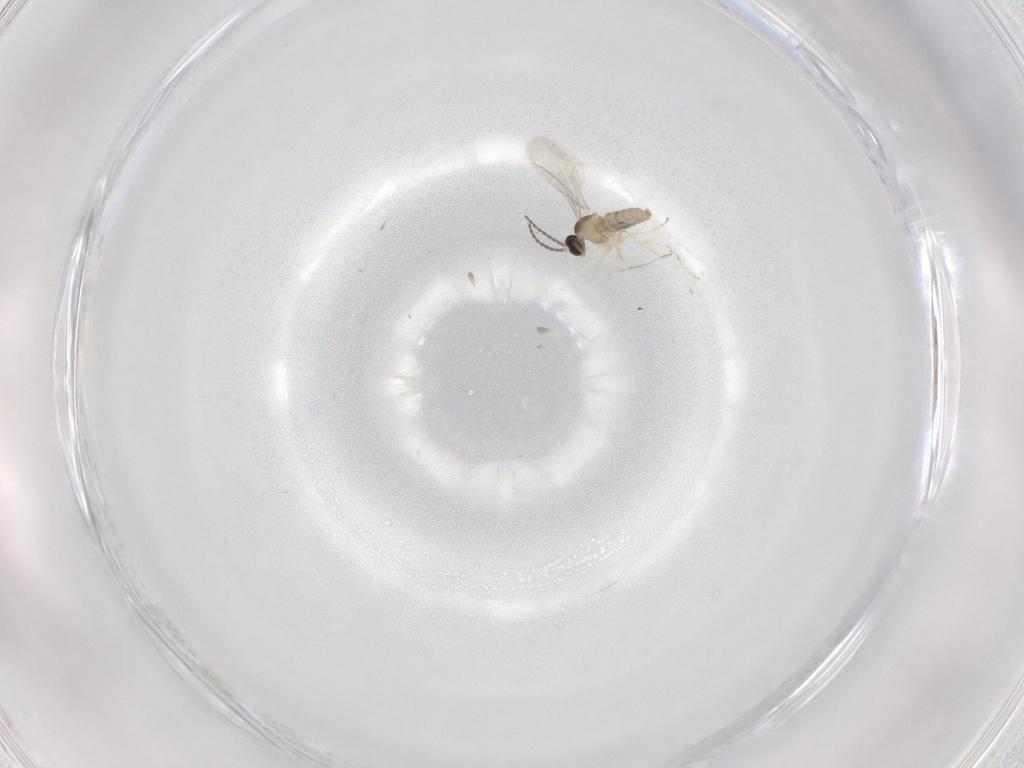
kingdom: Animalia
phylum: Arthropoda
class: Insecta
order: Diptera
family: Cecidomyiidae
